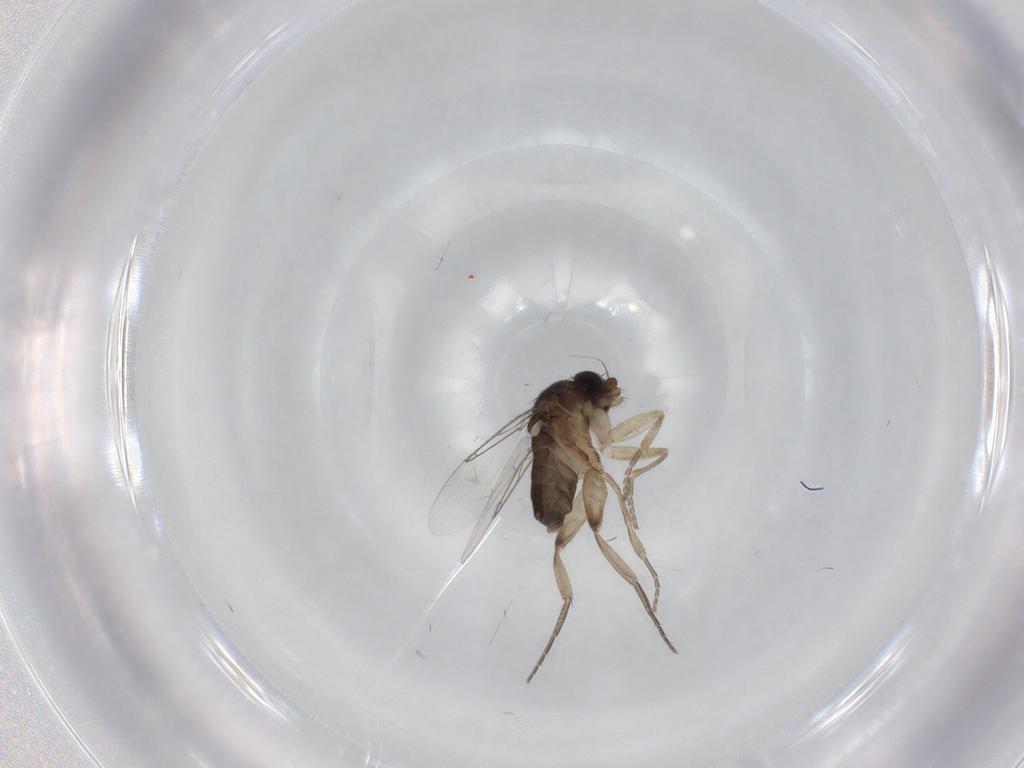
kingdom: Animalia
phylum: Arthropoda
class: Insecta
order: Diptera
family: Phoridae
